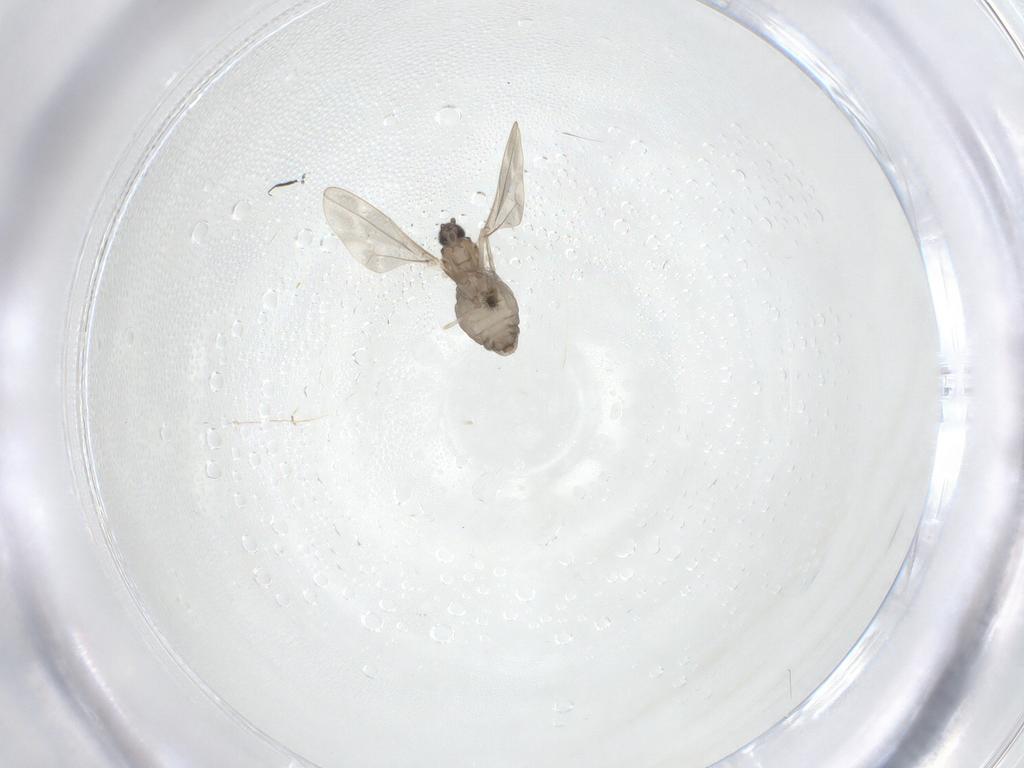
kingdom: Animalia
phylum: Arthropoda
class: Insecta
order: Diptera
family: Cecidomyiidae
